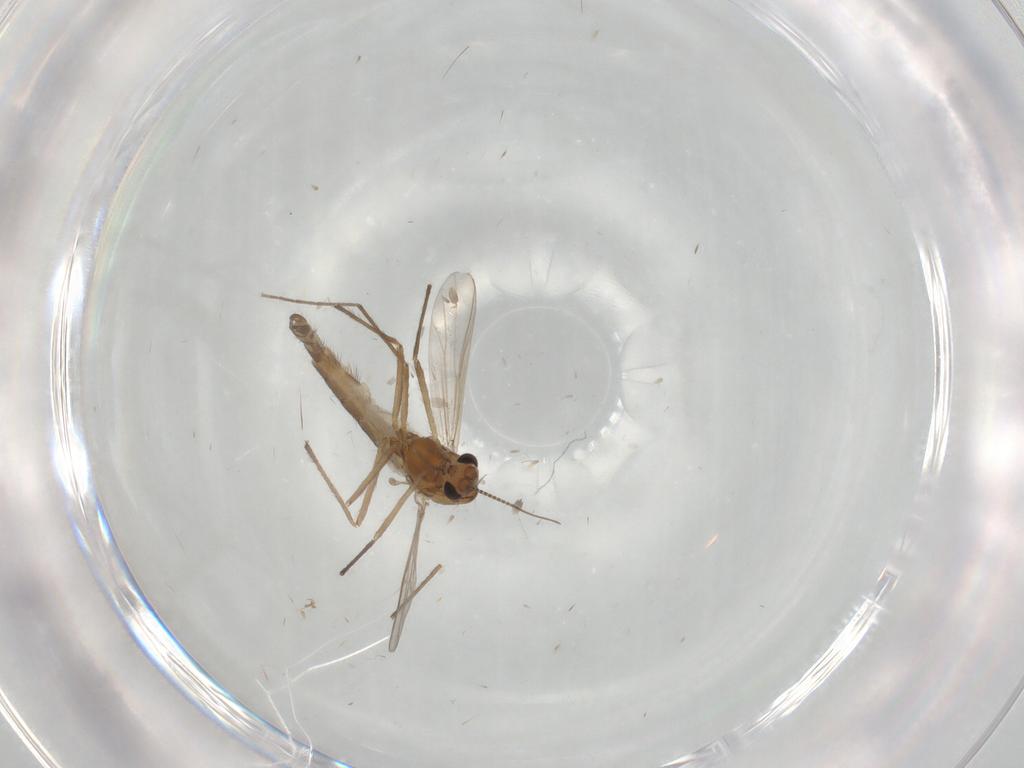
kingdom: Animalia
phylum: Arthropoda
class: Insecta
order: Diptera
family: Chironomidae
